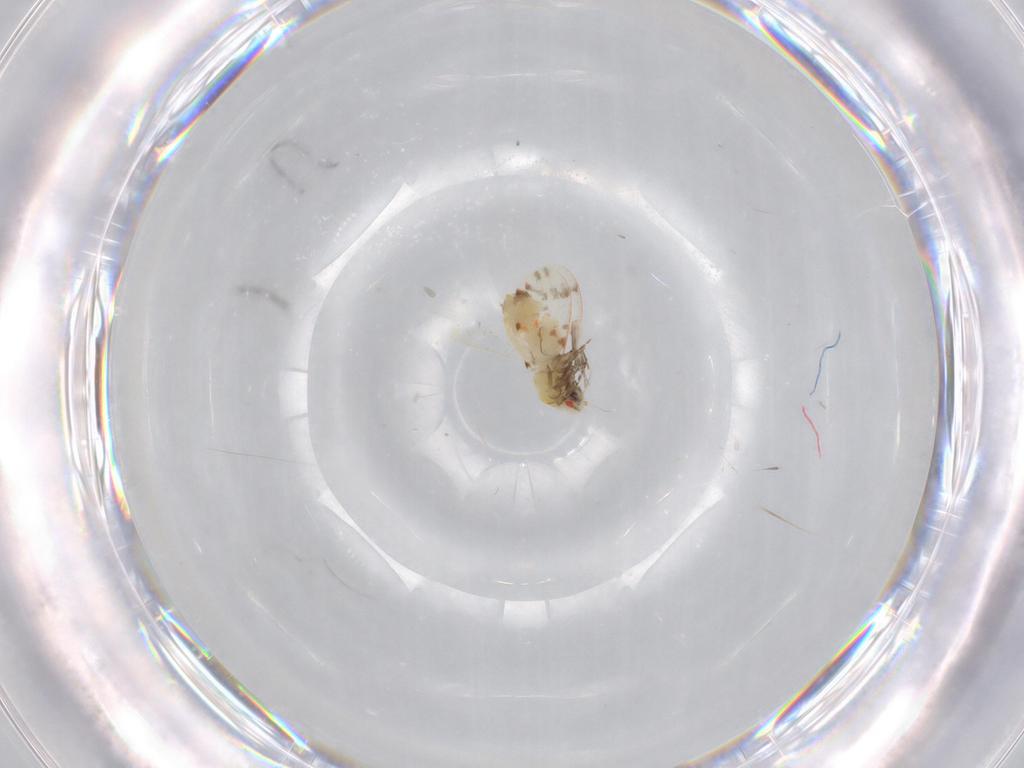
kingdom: Animalia
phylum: Arthropoda
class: Insecta
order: Hemiptera
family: Aleyrodidae
